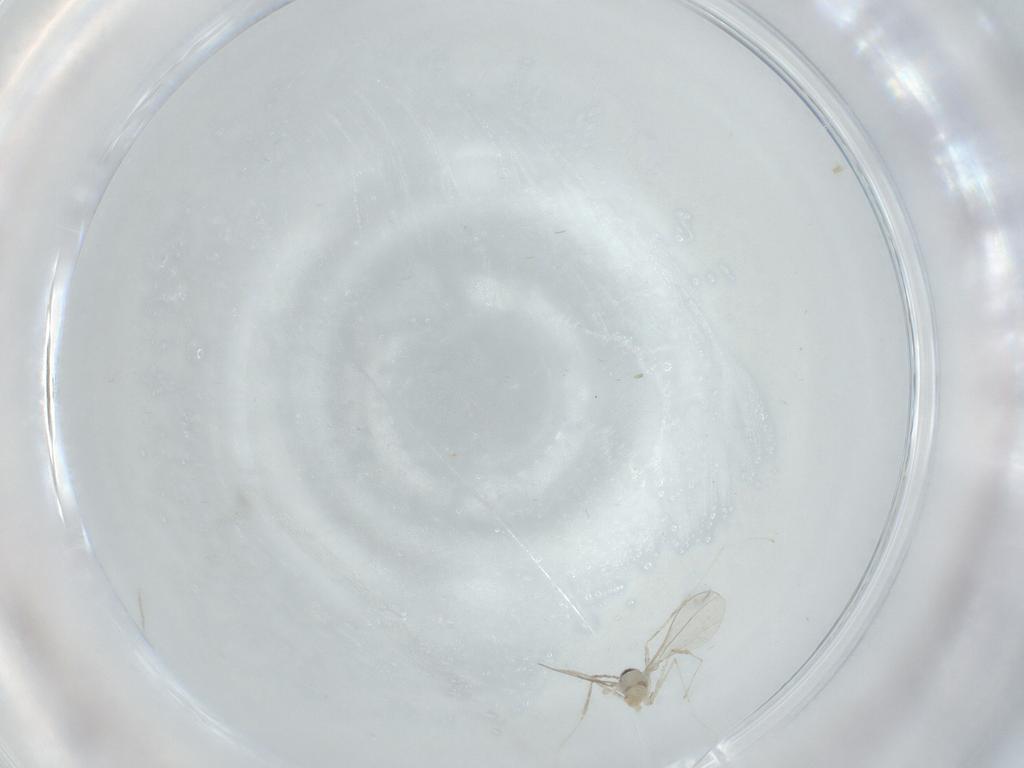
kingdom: Animalia
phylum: Arthropoda
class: Insecta
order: Diptera
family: Cecidomyiidae
